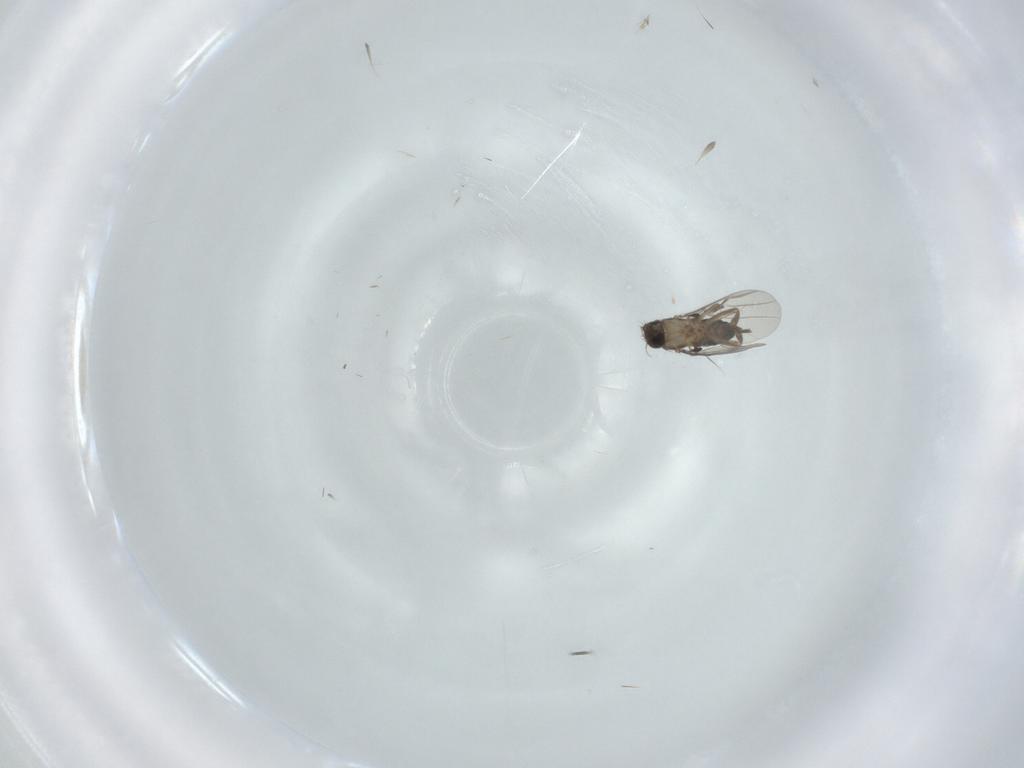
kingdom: Animalia
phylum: Arthropoda
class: Insecta
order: Diptera
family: Phoridae
